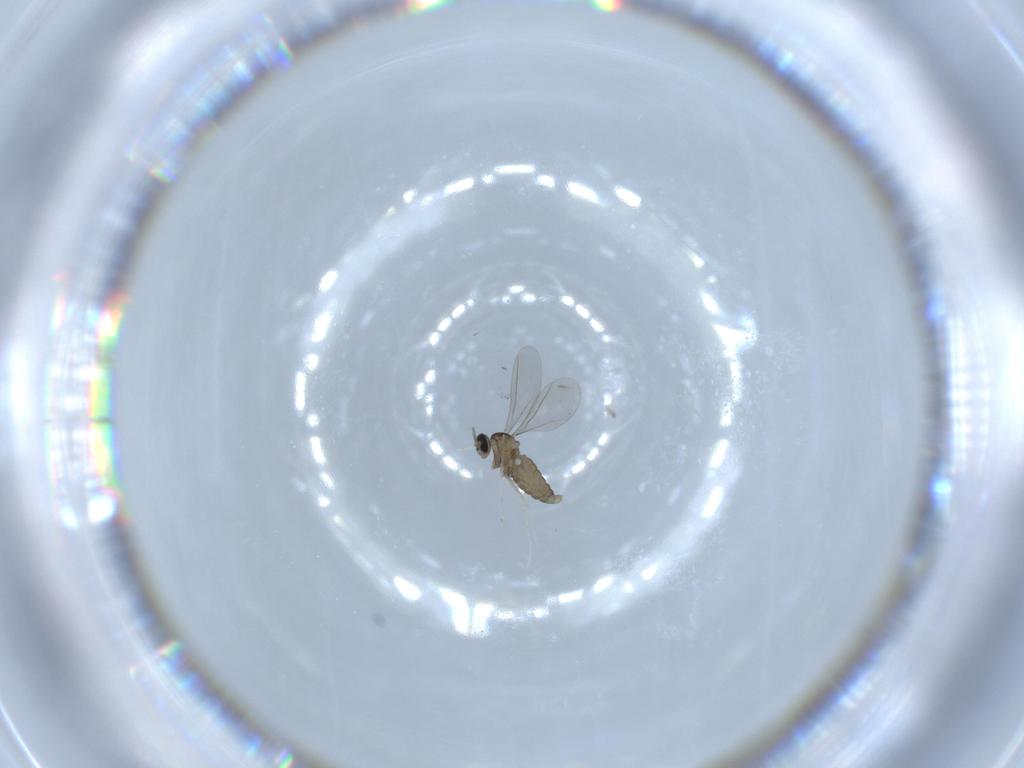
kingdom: Animalia
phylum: Arthropoda
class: Insecta
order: Diptera
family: Cecidomyiidae
